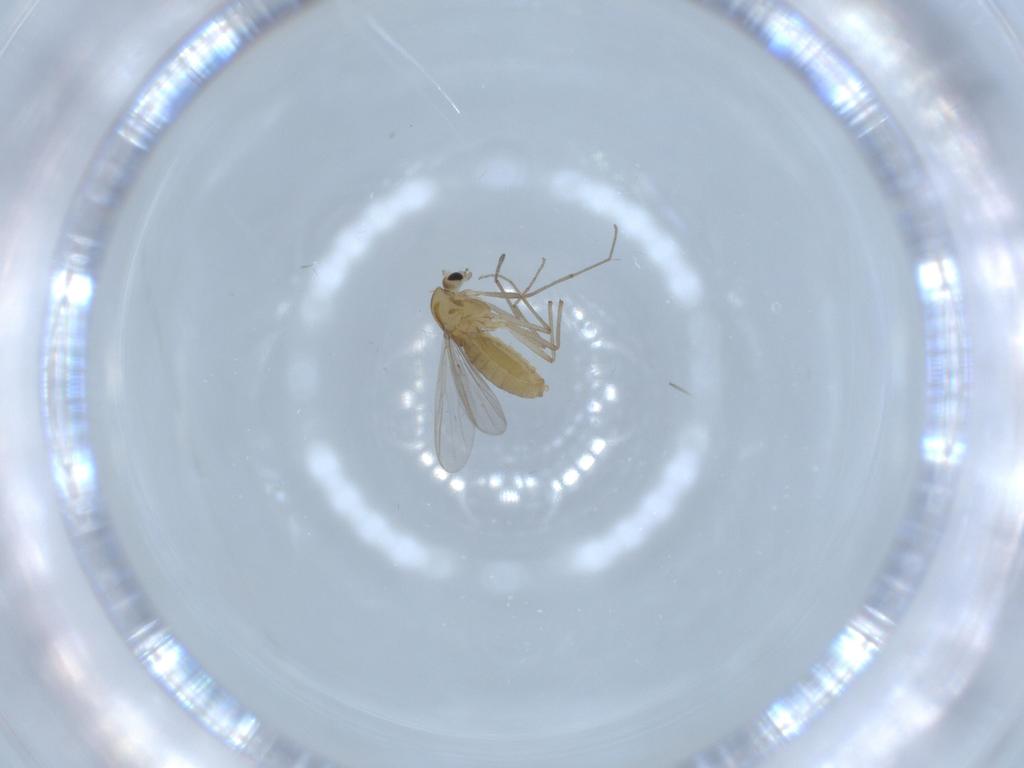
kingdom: Animalia
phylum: Arthropoda
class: Insecta
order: Diptera
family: Chironomidae
